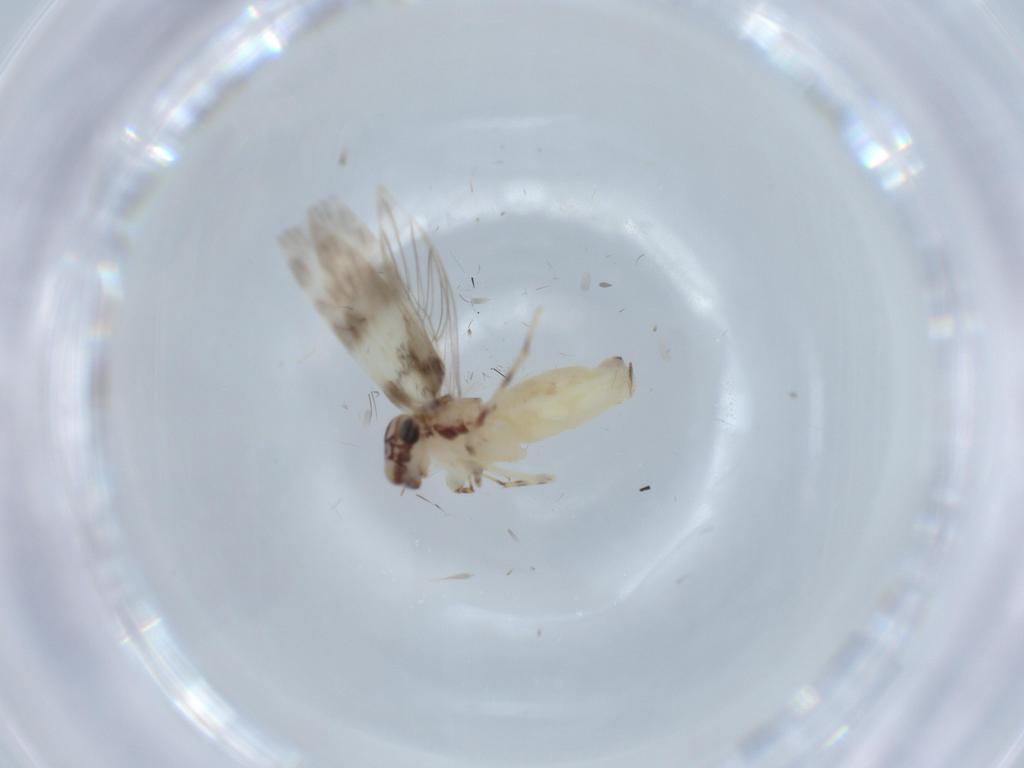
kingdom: Animalia
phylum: Arthropoda
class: Insecta
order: Psocodea
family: Lepidopsocidae
